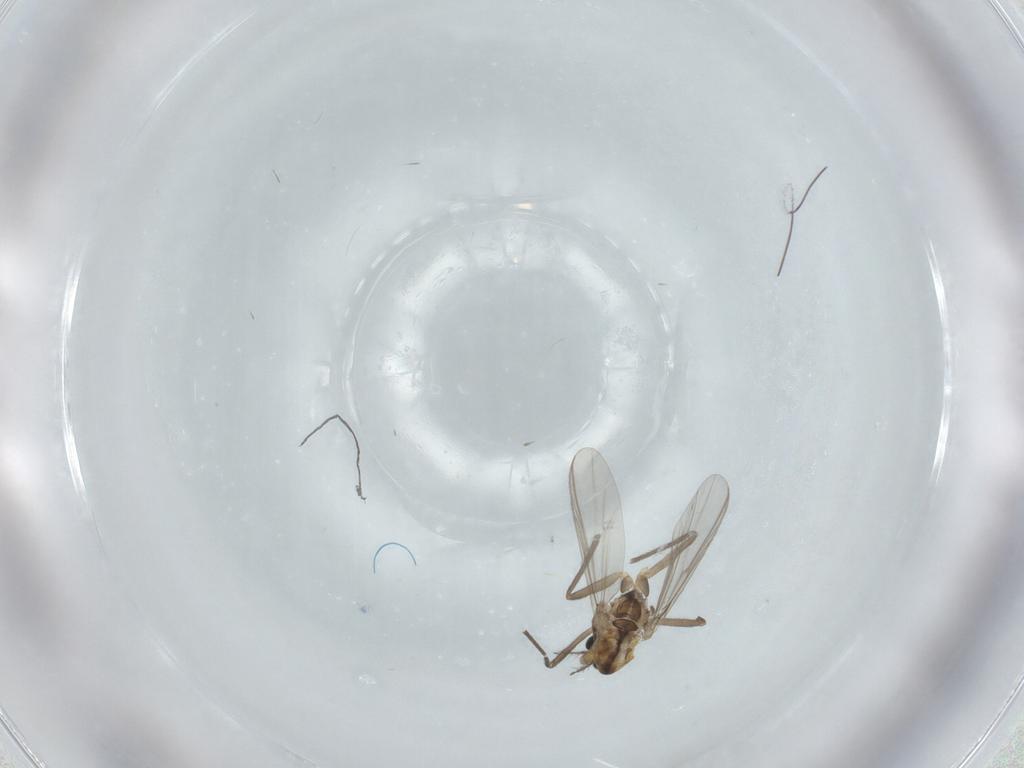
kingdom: Animalia
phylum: Arthropoda
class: Insecta
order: Diptera
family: Chironomidae
